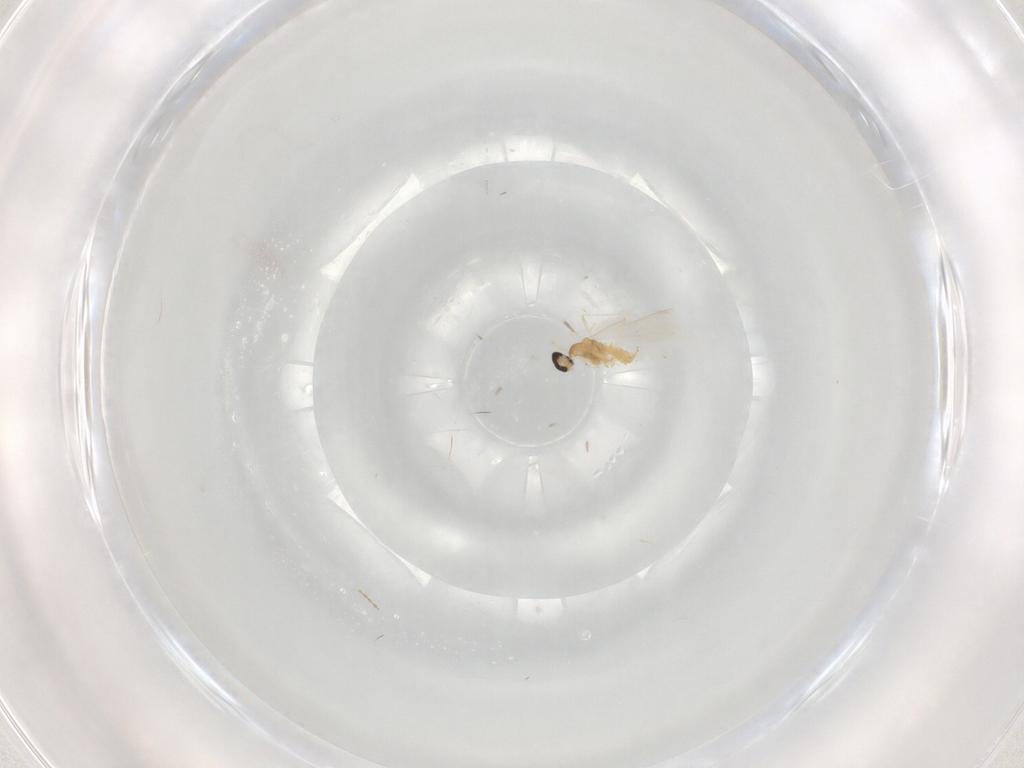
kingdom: Animalia
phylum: Arthropoda
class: Insecta
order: Diptera
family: Cecidomyiidae
